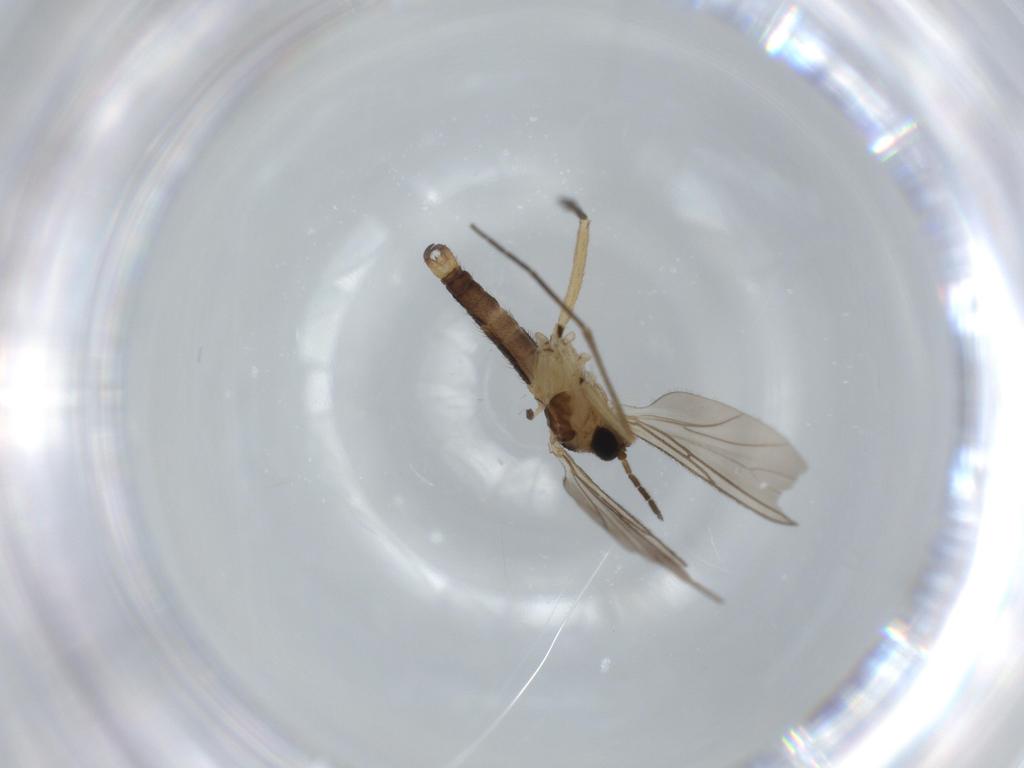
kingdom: Animalia
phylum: Arthropoda
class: Insecta
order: Diptera
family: Sciaridae
